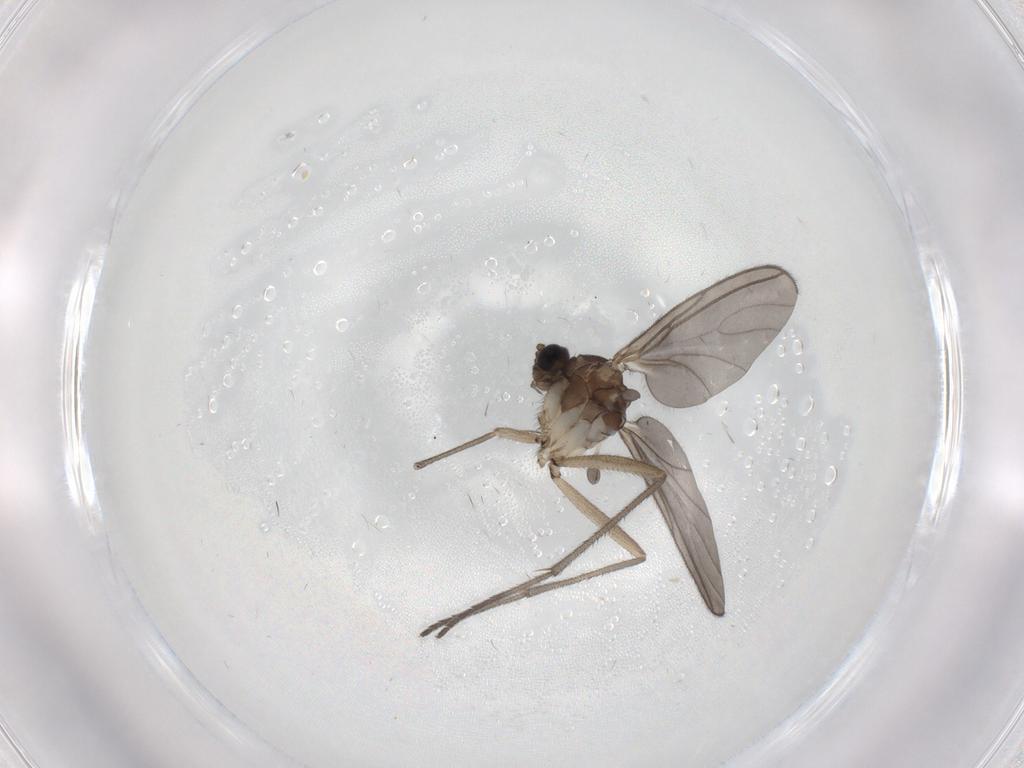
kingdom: Animalia
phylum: Arthropoda
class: Insecta
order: Diptera
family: Sciaridae
